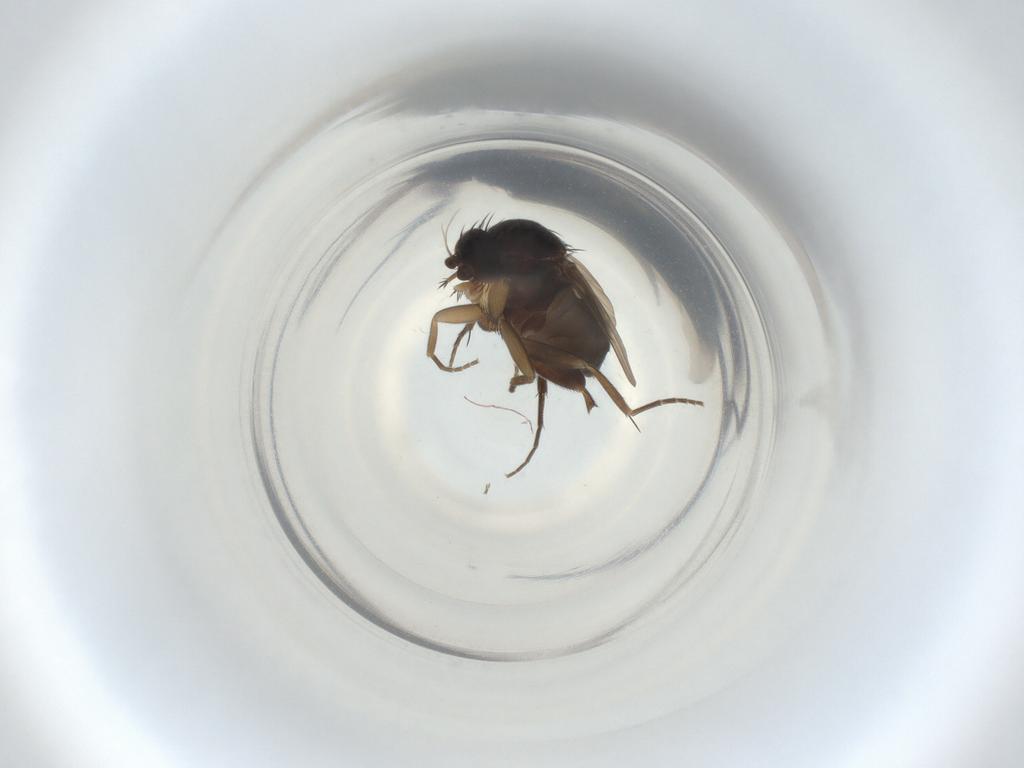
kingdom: Animalia
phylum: Arthropoda
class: Insecta
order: Diptera
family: Phoridae
